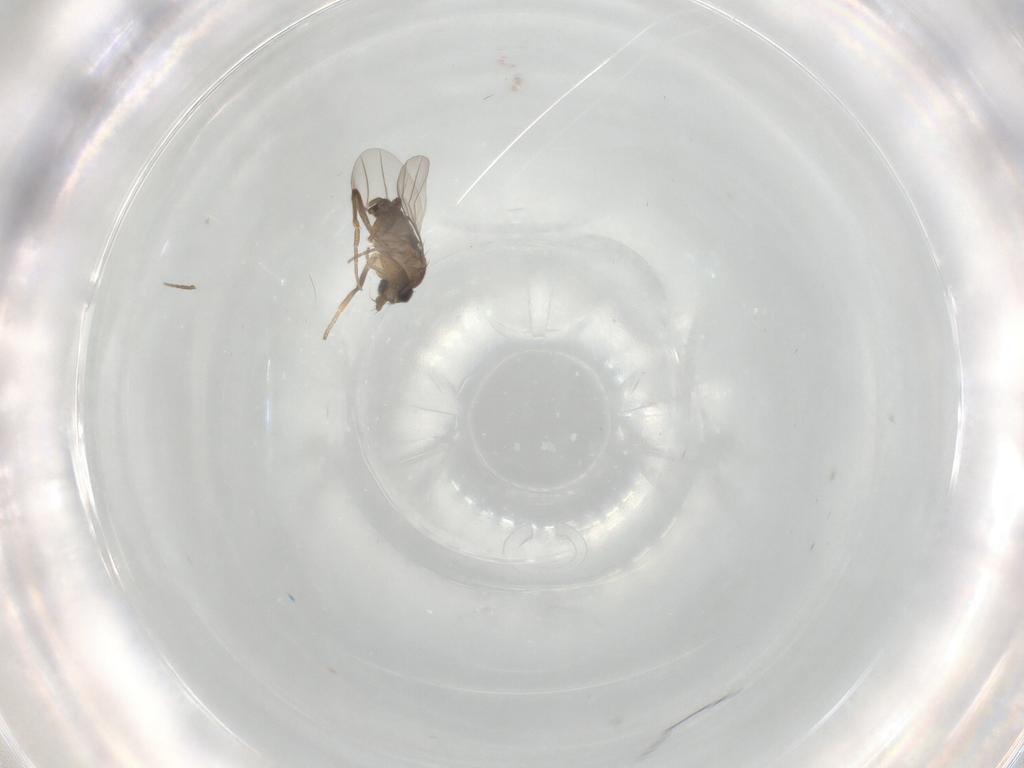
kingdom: Animalia
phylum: Arthropoda
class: Insecta
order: Diptera
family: Phoridae
